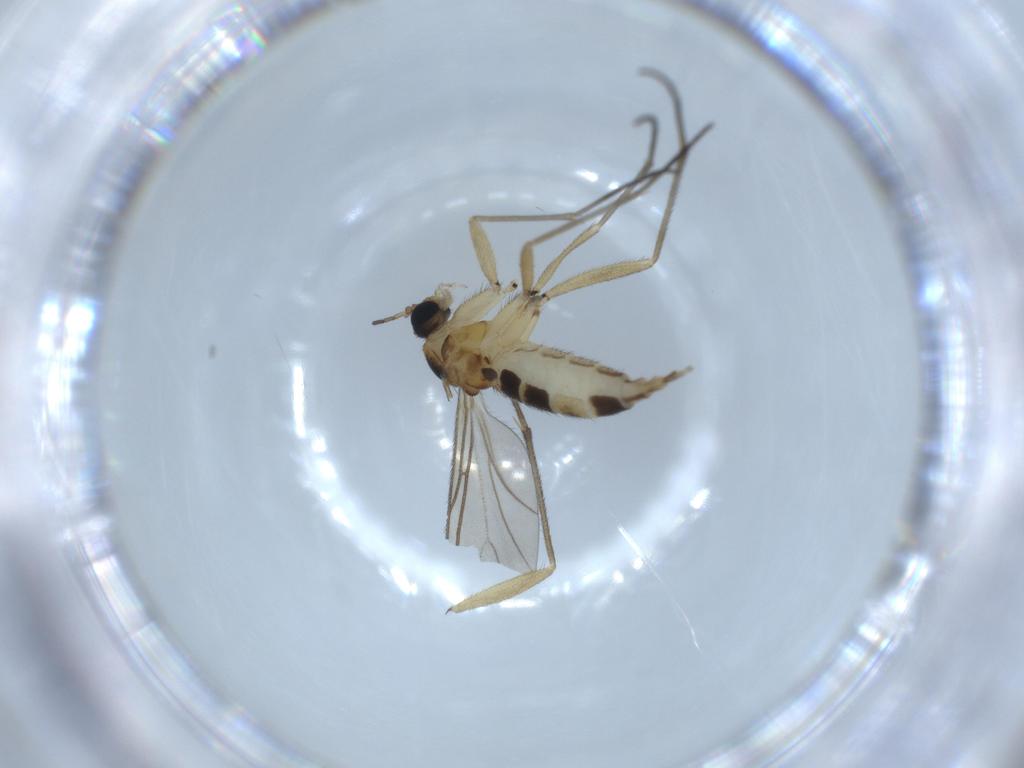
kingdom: Animalia
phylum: Arthropoda
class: Insecta
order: Diptera
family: Sciaridae
